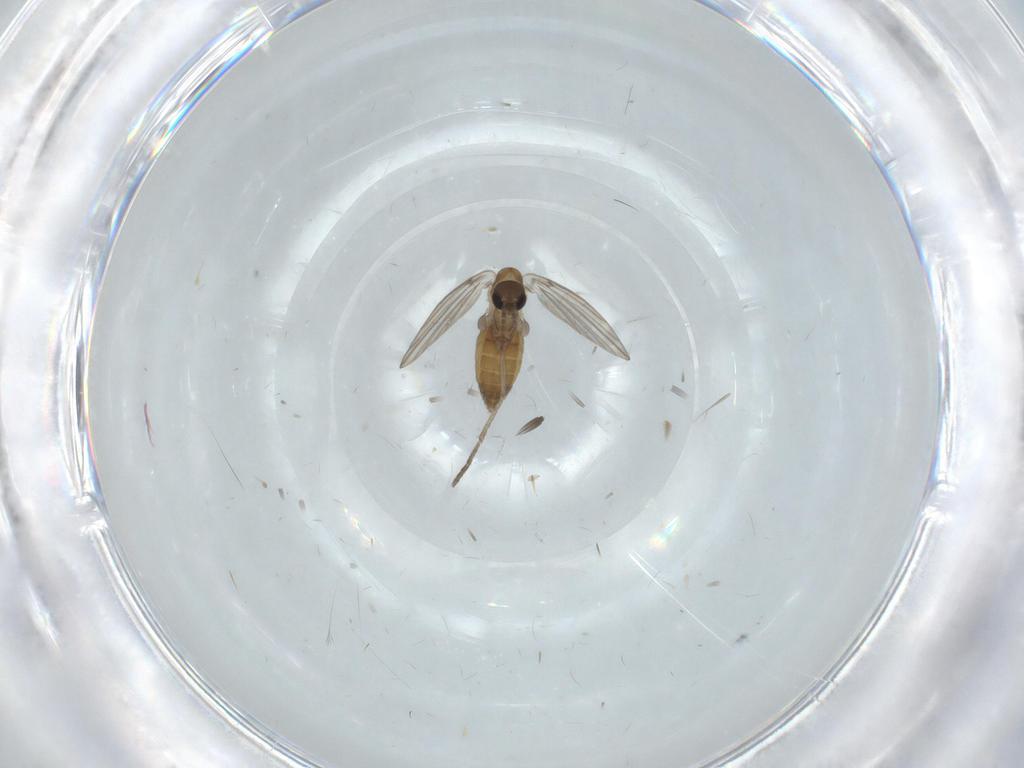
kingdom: Animalia
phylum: Arthropoda
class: Insecta
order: Diptera
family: Psychodidae
